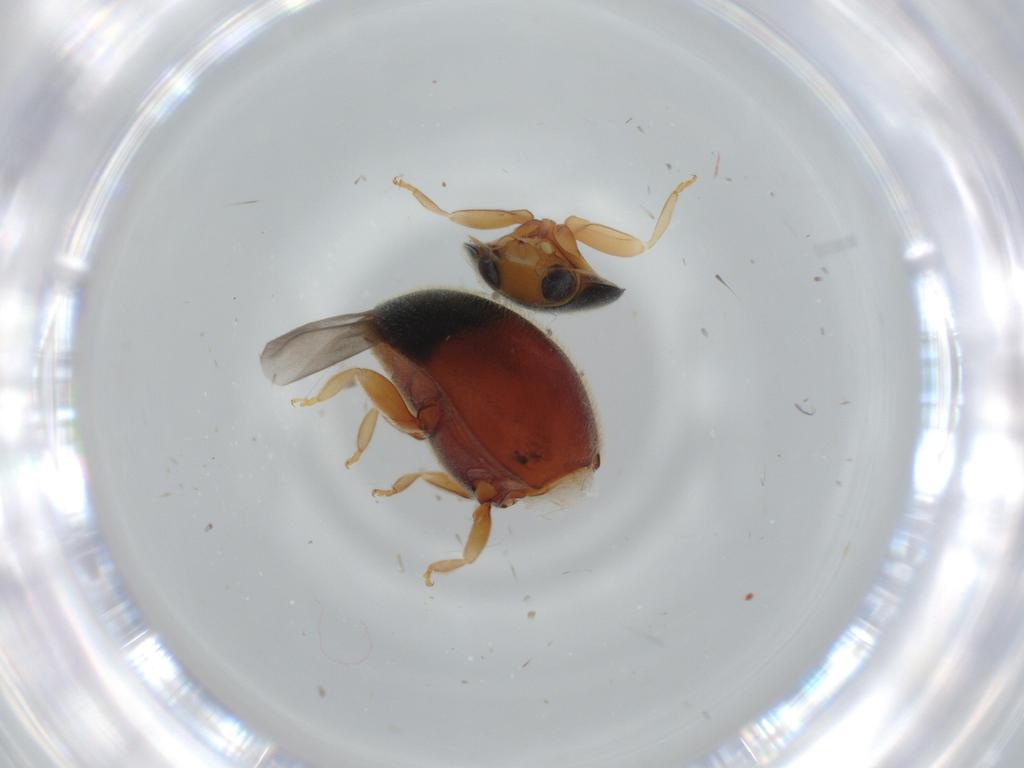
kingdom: Animalia
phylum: Arthropoda
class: Insecta
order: Coleoptera
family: Coccinellidae
